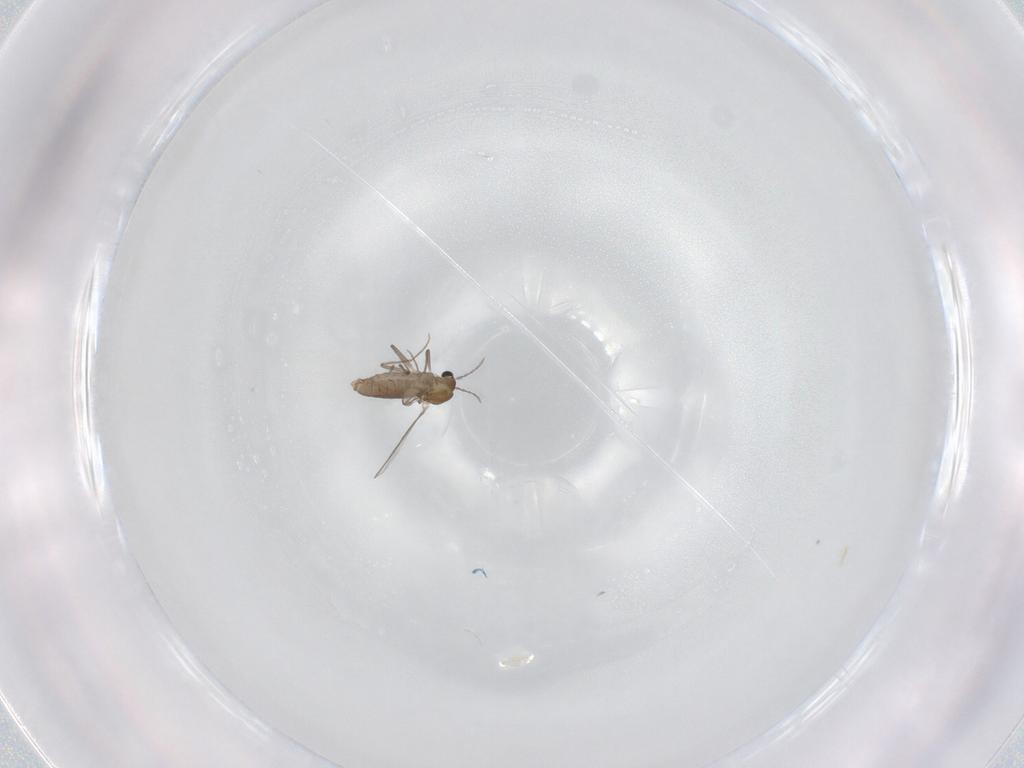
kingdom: Animalia
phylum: Arthropoda
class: Insecta
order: Diptera
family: Chironomidae
